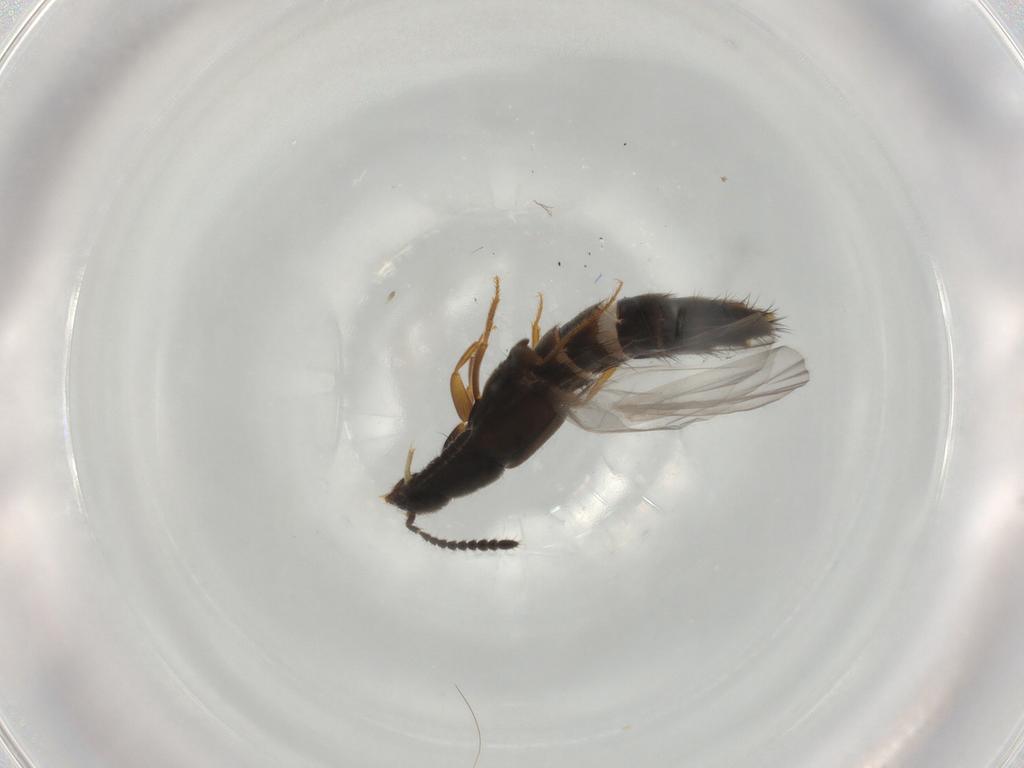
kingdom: Animalia
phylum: Arthropoda
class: Insecta
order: Coleoptera
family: Staphylinidae
